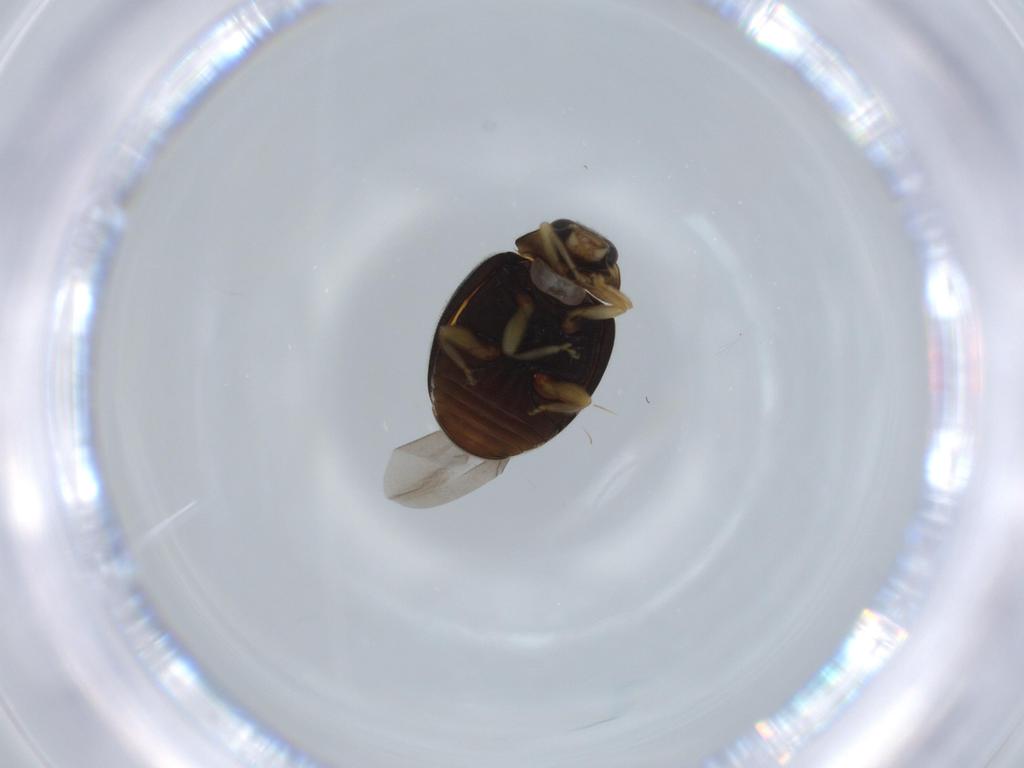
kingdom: Animalia
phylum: Arthropoda
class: Insecta
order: Coleoptera
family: Coccinellidae
